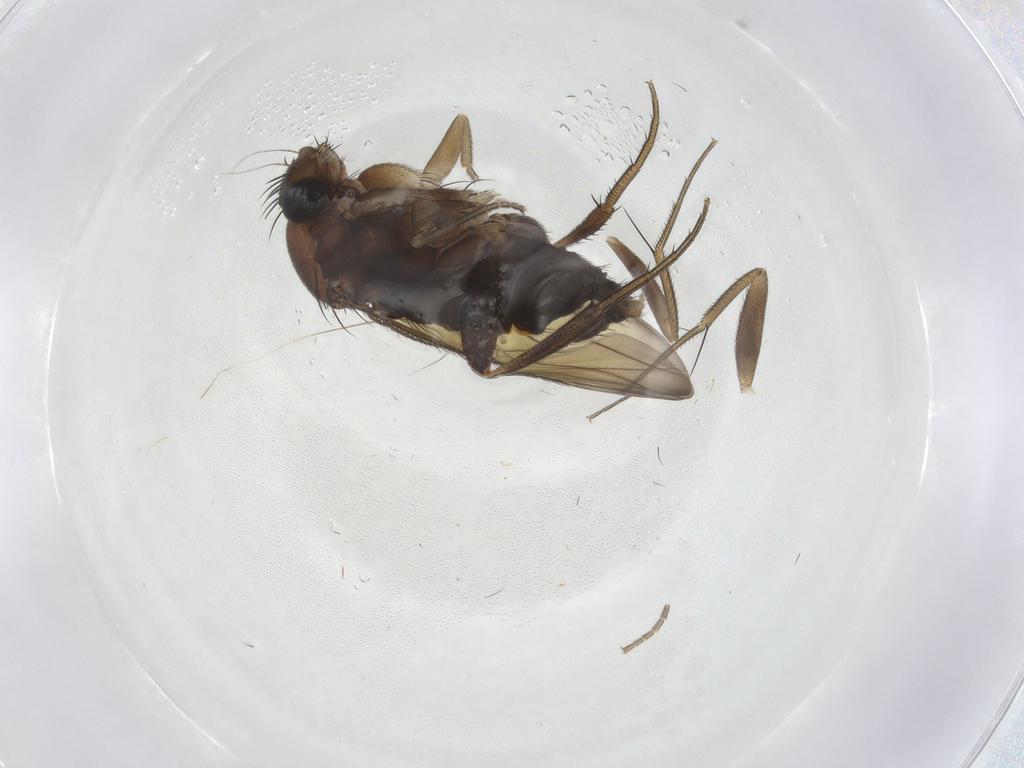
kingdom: Animalia
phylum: Arthropoda
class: Insecta
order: Diptera
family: Phoridae
